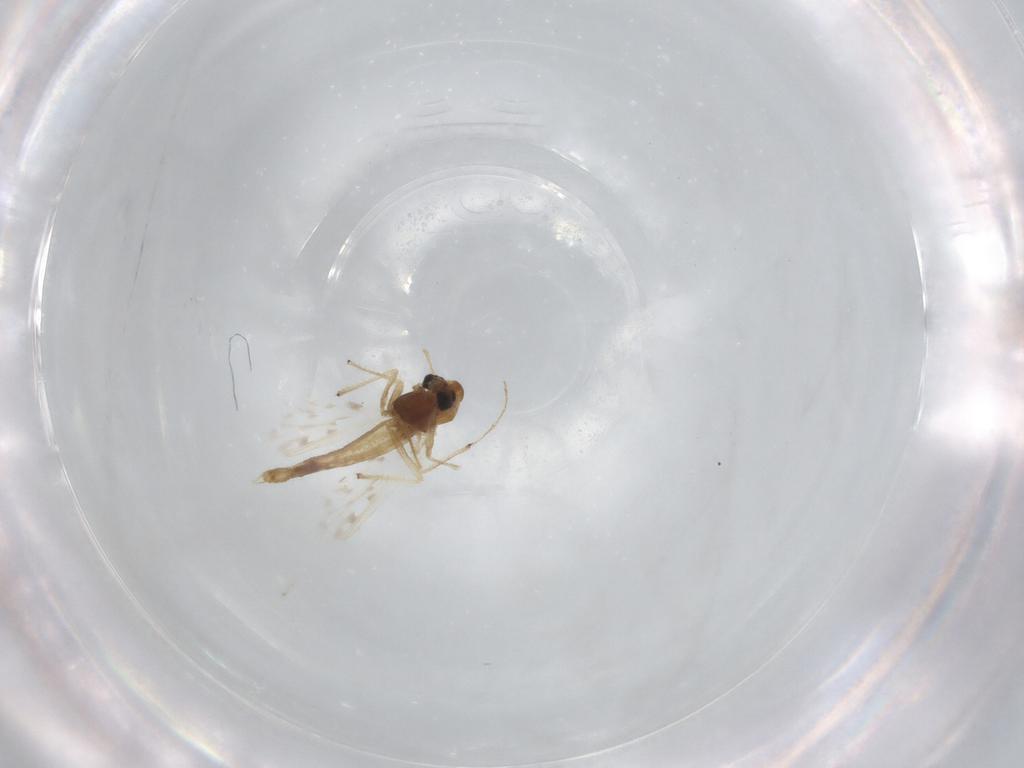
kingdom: Animalia
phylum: Arthropoda
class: Insecta
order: Diptera
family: Chironomidae
